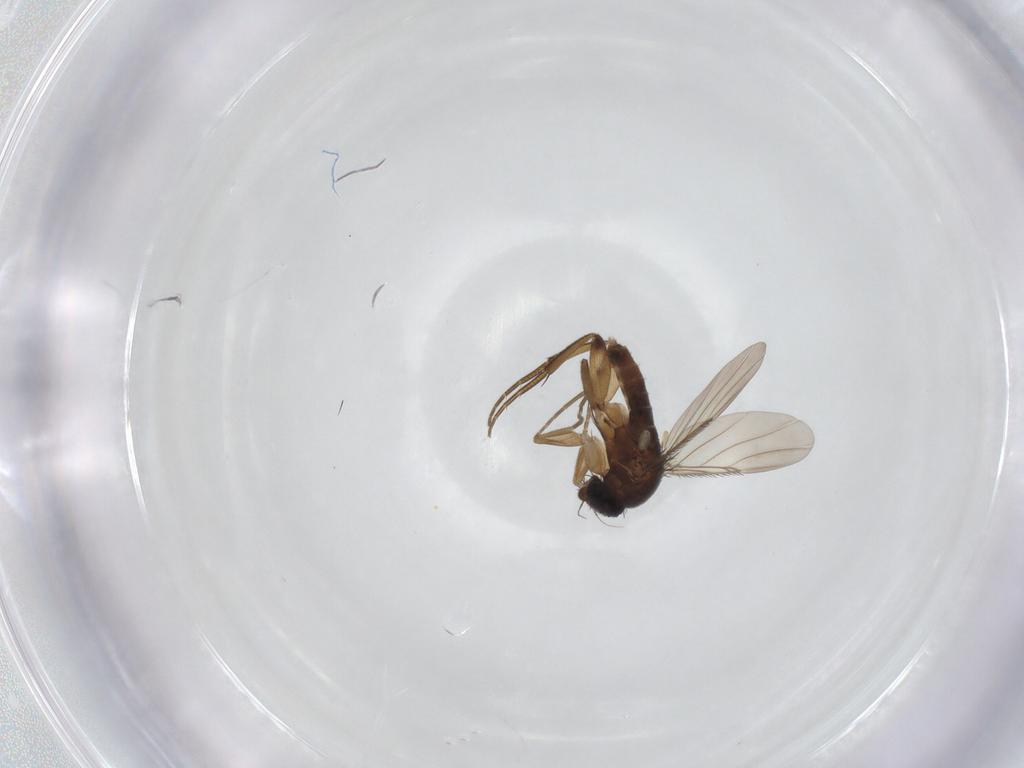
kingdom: Animalia
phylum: Arthropoda
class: Insecta
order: Diptera
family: Phoridae
